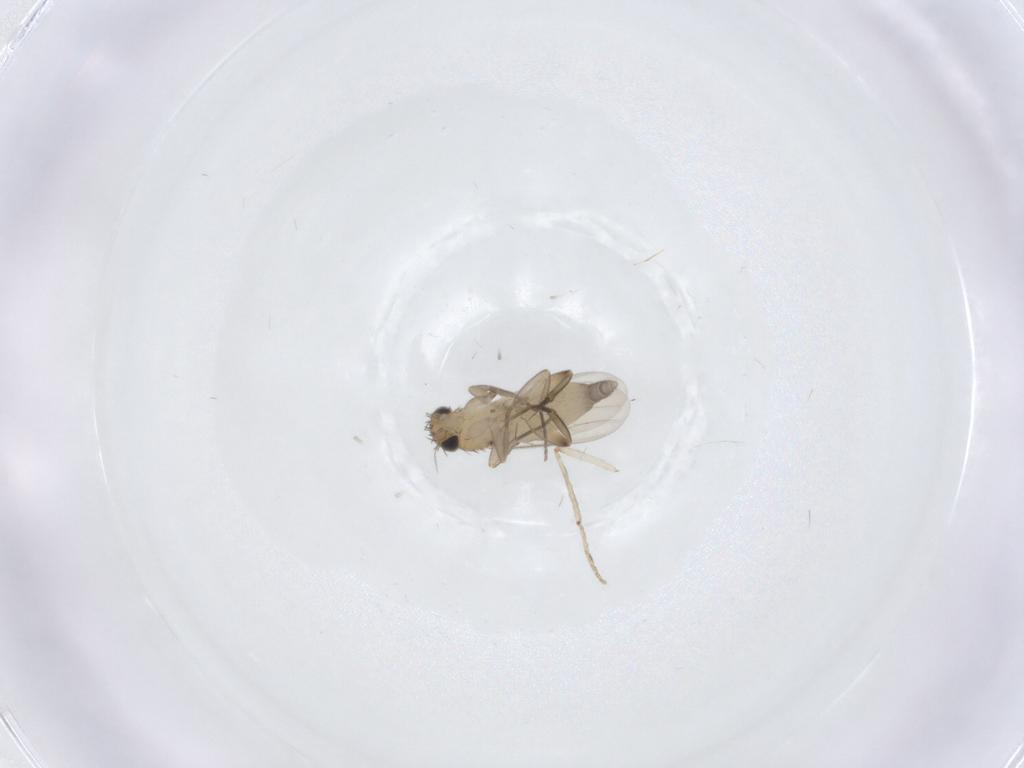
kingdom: Animalia
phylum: Arthropoda
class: Insecta
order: Diptera
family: Phoridae
